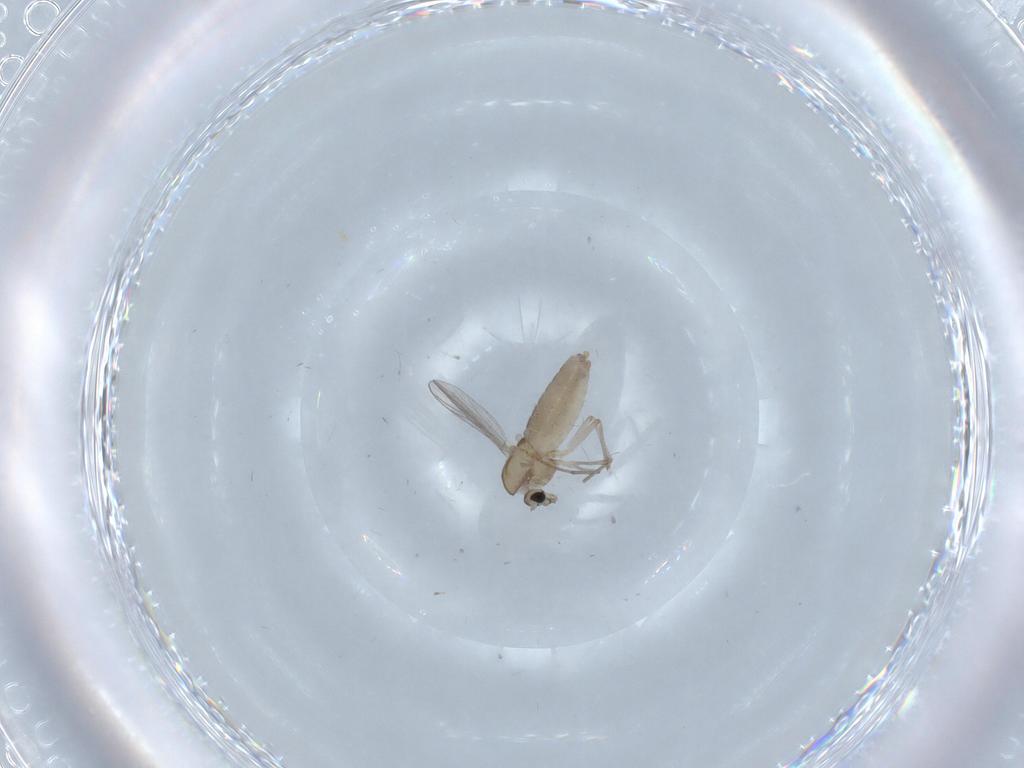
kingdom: Animalia
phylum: Arthropoda
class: Insecta
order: Diptera
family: Chironomidae
